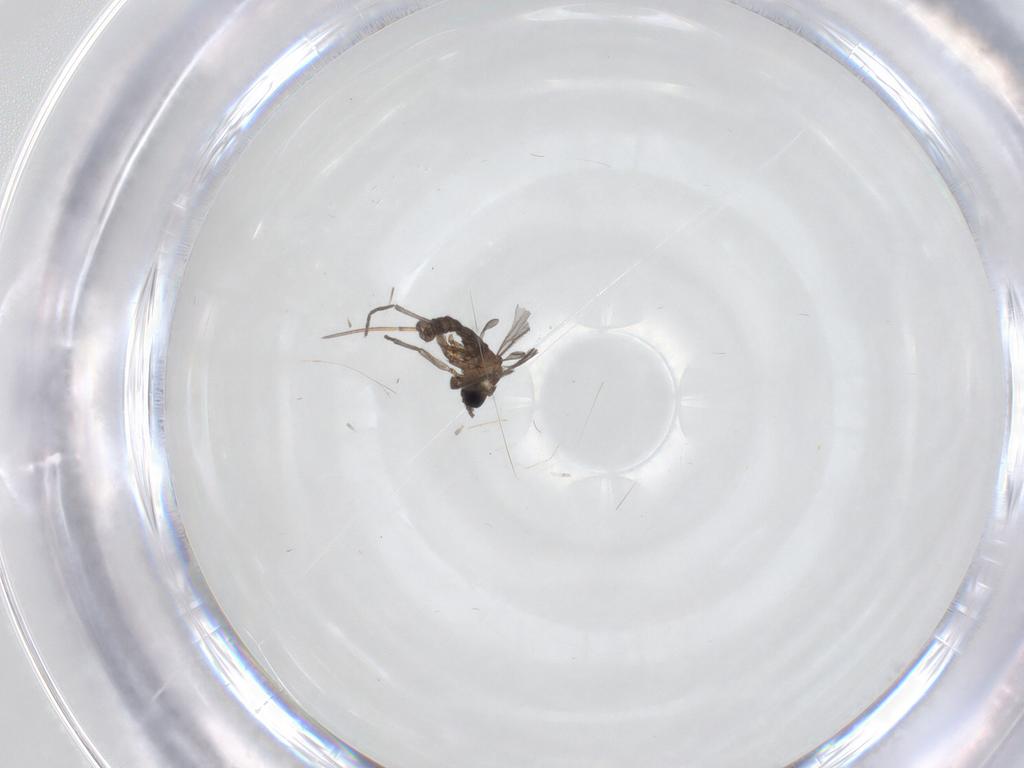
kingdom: Animalia
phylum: Arthropoda
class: Insecta
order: Diptera
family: Sciaridae
